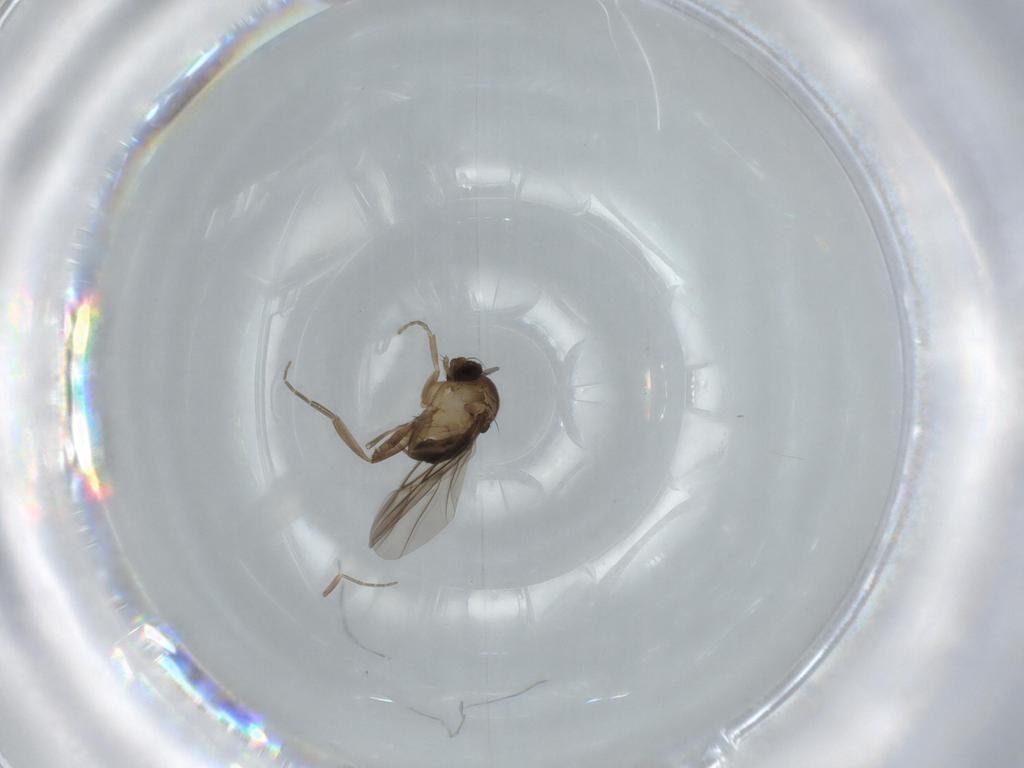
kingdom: Animalia
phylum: Arthropoda
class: Insecta
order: Diptera
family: Phoridae
